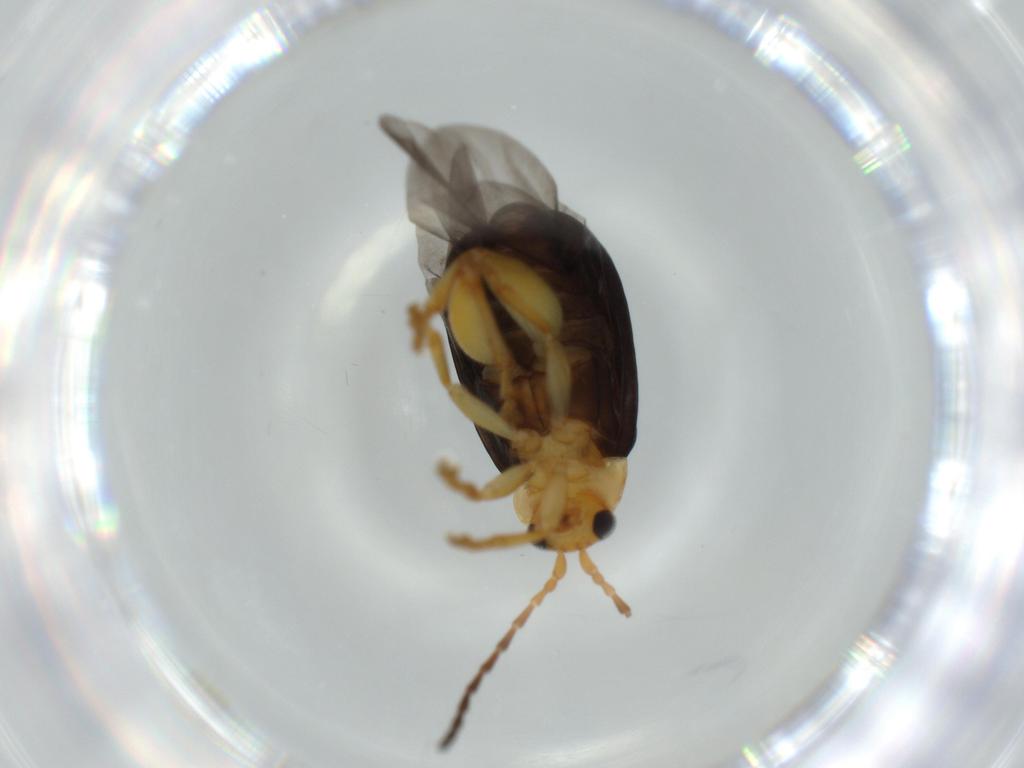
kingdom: Animalia
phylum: Arthropoda
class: Insecta
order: Coleoptera
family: Chrysomelidae
